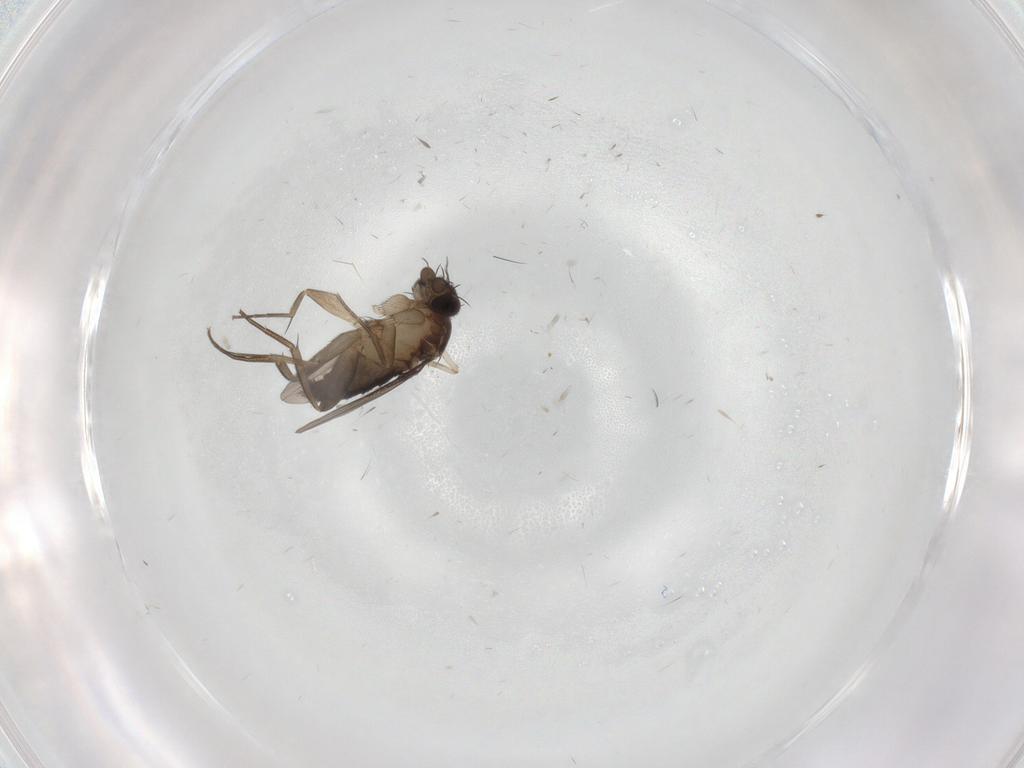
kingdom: Animalia
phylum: Arthropoda
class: Insecta
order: Diptera
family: Phoridae
